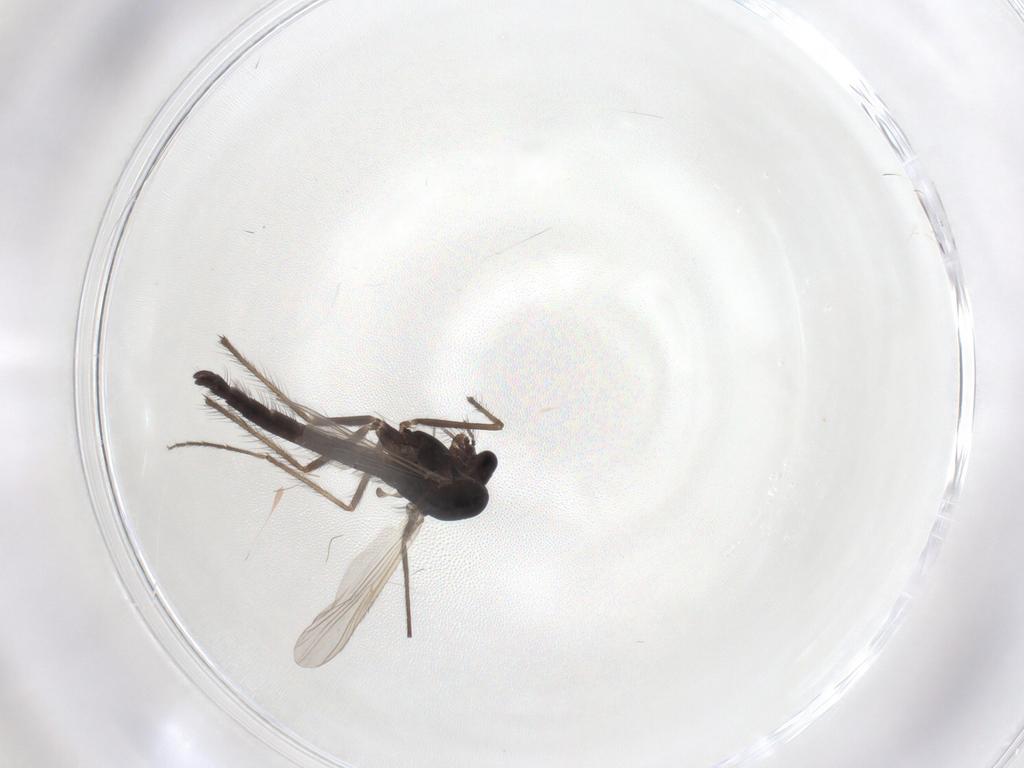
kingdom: Animalia
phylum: Arthropoda
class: Insecta
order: Diptera
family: Chironomidae
